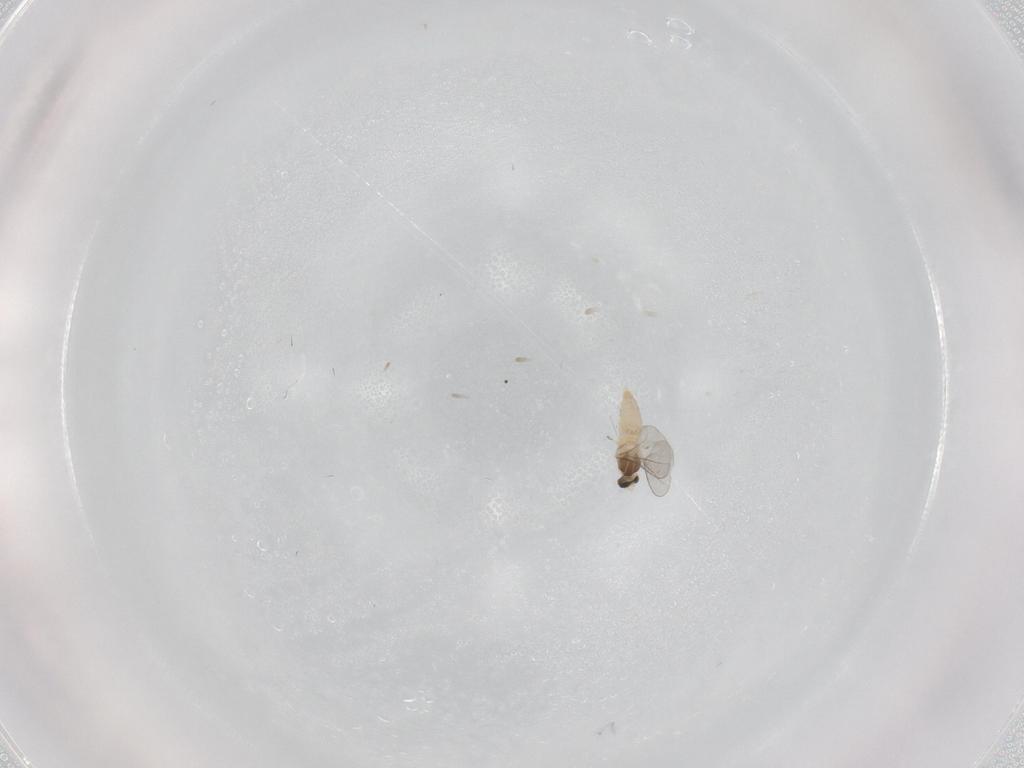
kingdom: Animalia
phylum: Arthropoda
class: Insecta
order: Diptera
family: Cecidomyiidae
